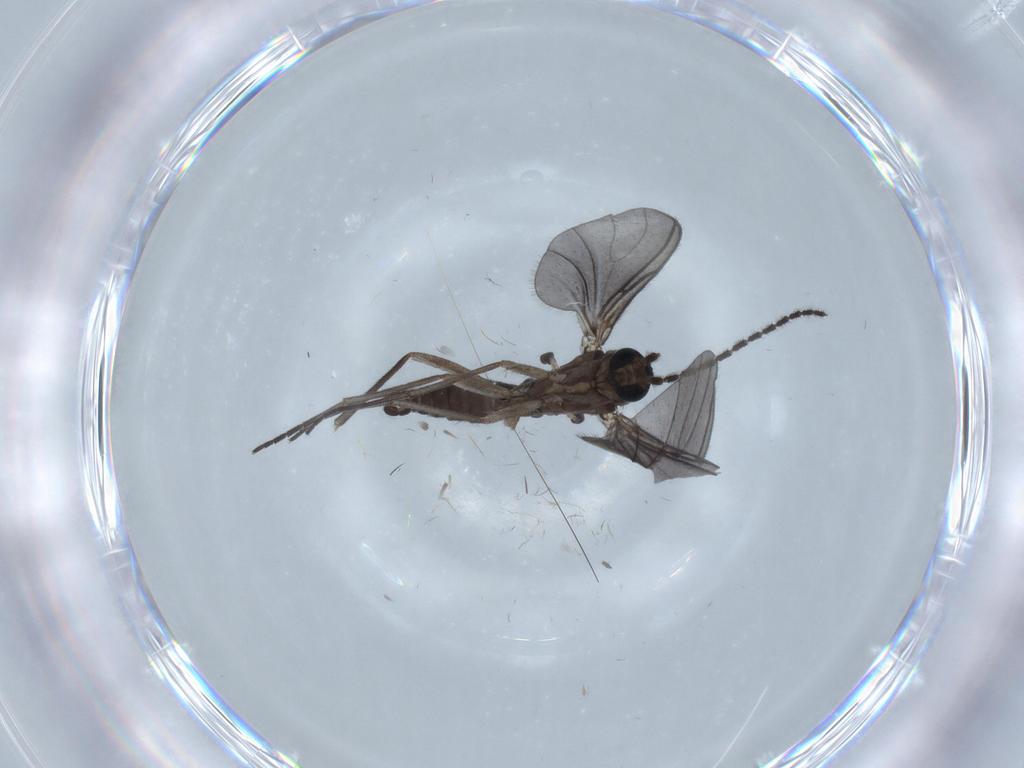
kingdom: Animalia
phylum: Arthropoda
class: Insecta
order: Diptera
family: Sciaridae
